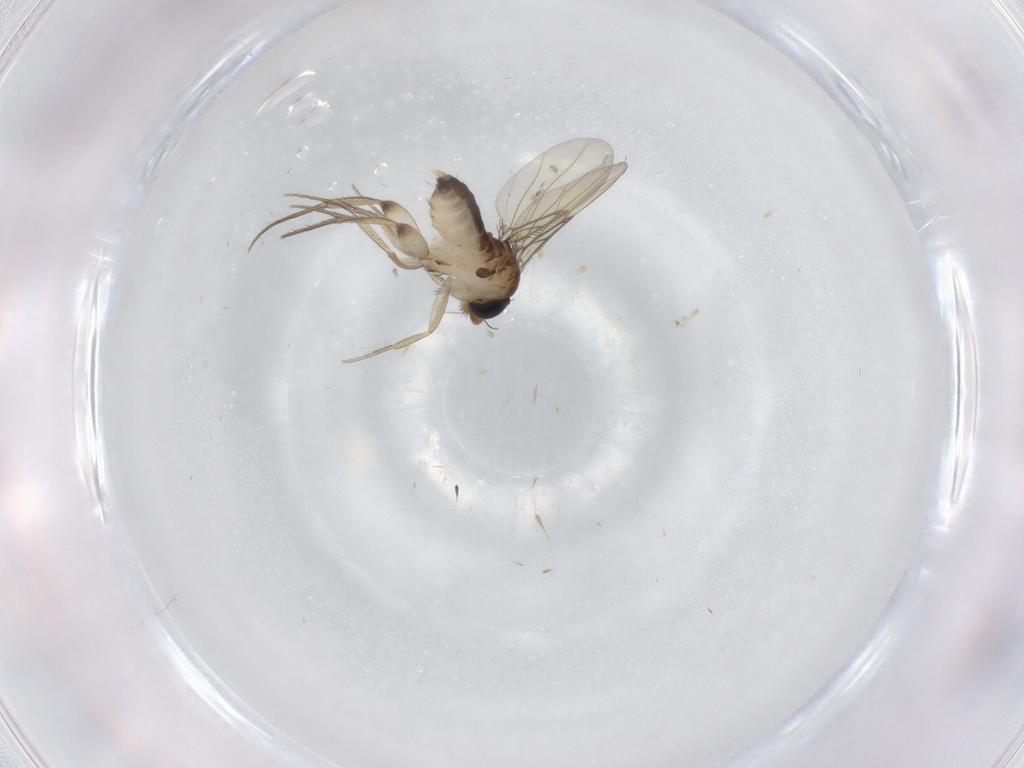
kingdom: Animalia
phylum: Arthropoda
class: Insecta
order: Diptera
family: Phoridae
